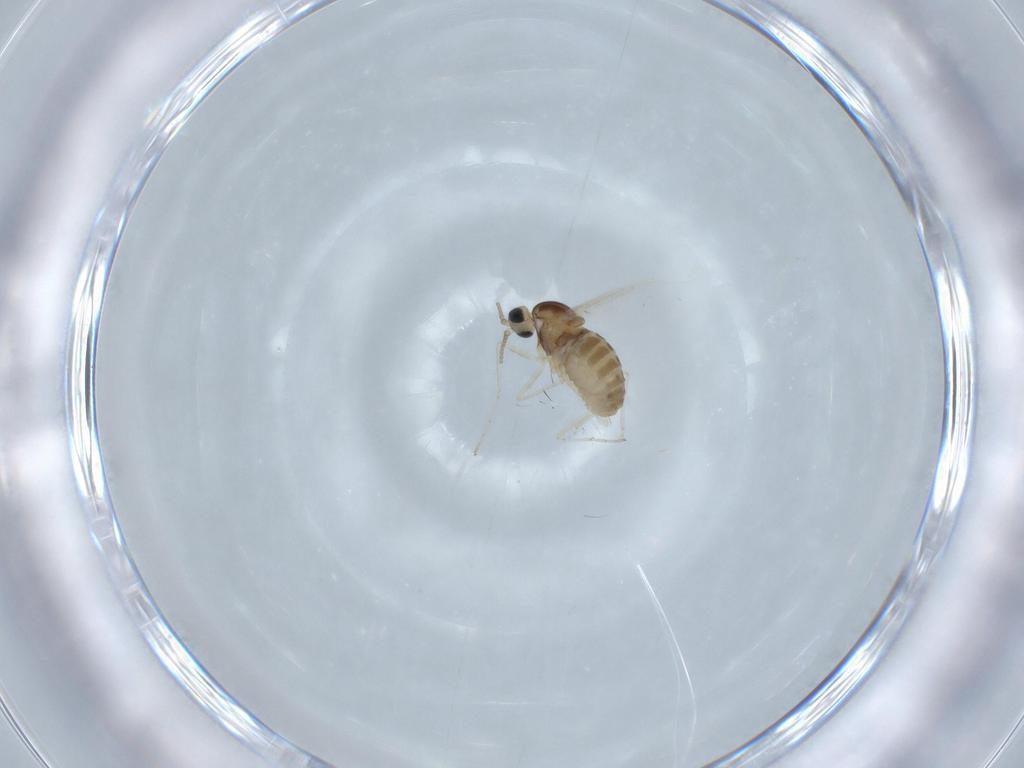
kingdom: Animalia
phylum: Arthropoda
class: Insecta
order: Diptera
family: Cecidomyiidae
